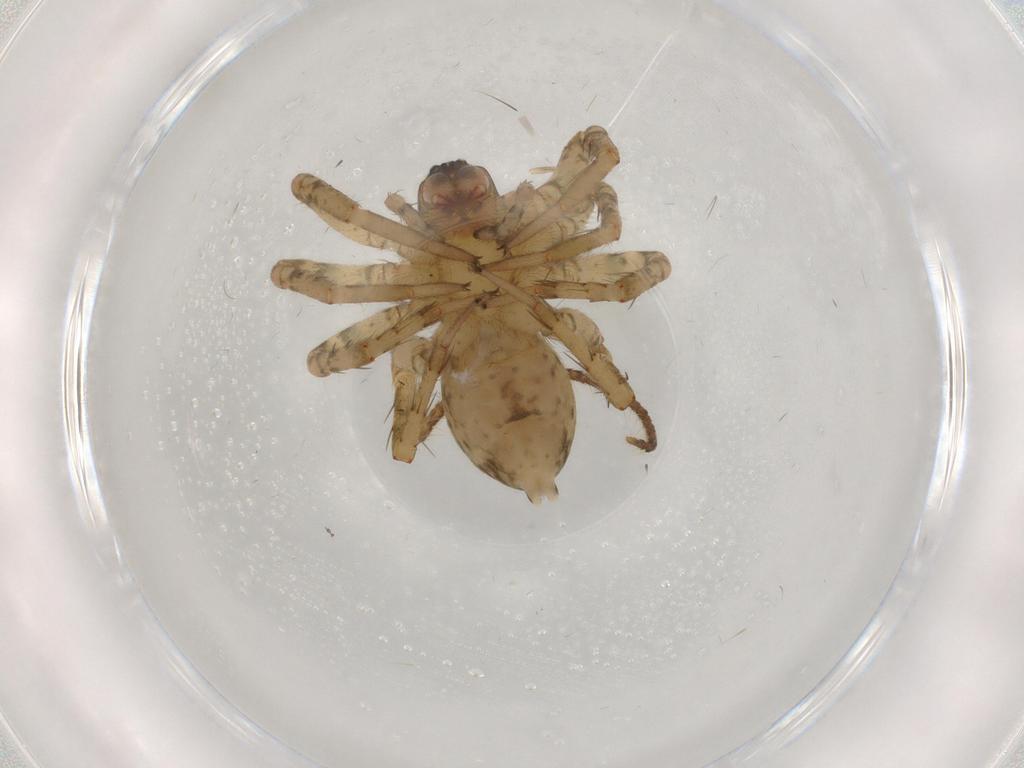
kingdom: Animalia
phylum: Arthropoda
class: Arachnida
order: Araneae
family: Anyphaenidae
